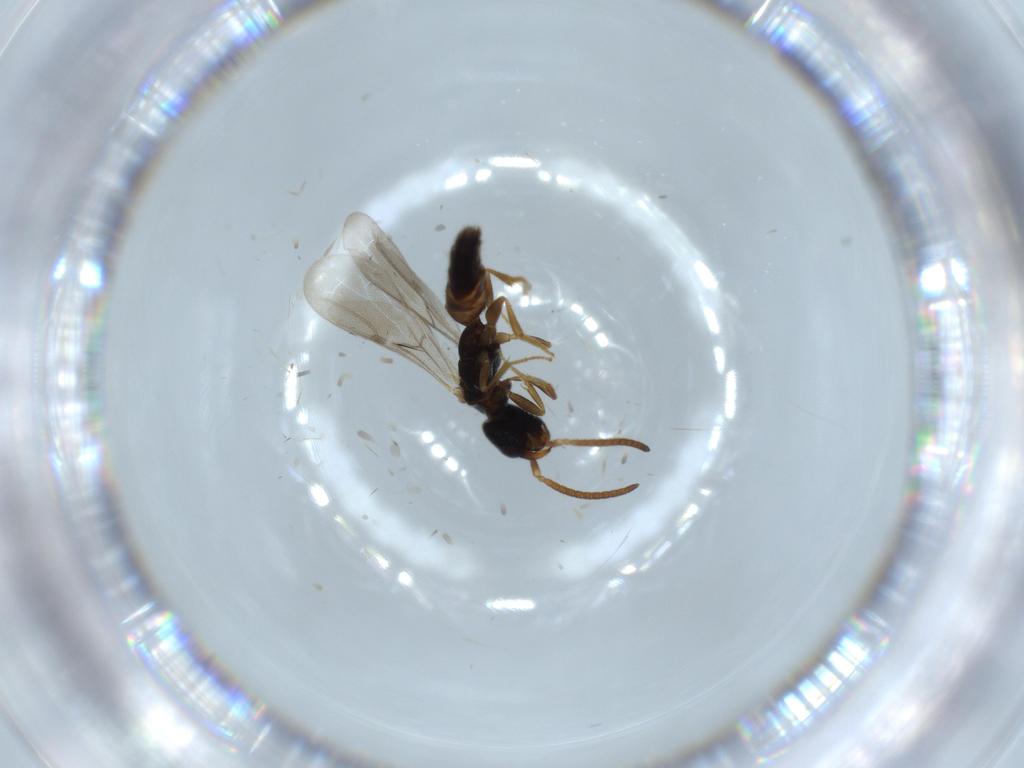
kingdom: Animalia
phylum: Arthropoda
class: Insecta
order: Hymenoptera
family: Bethylidae
